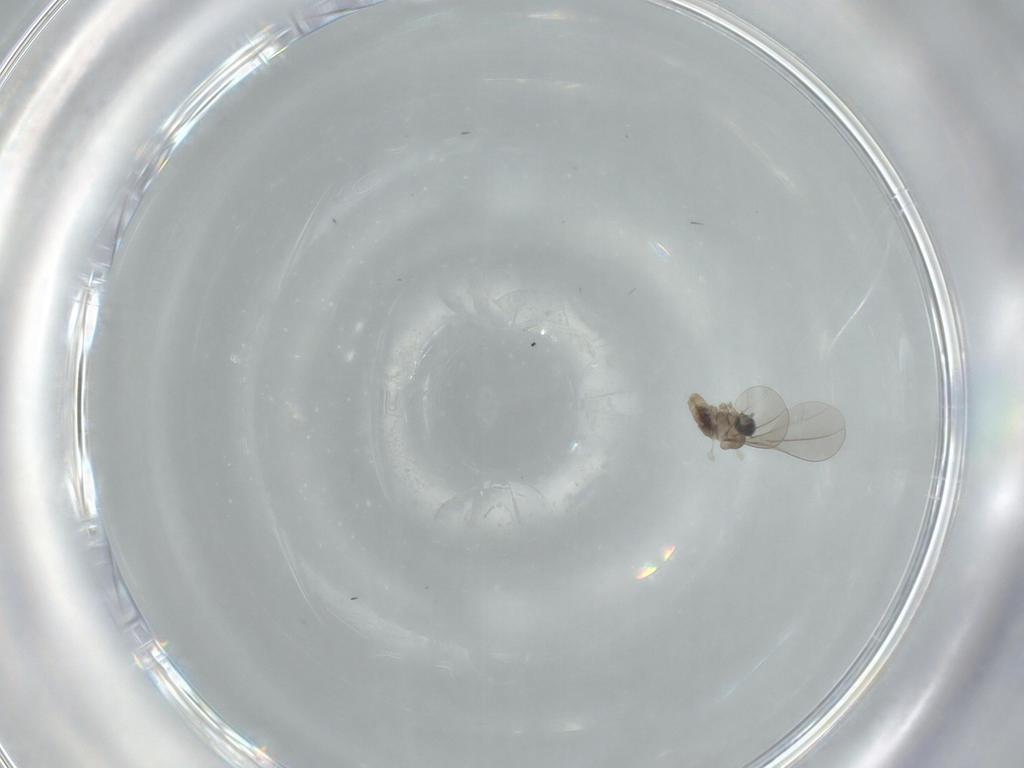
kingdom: Animalia
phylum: Arthropoda
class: Insecta
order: Diptera
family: Cecidomyiidae
